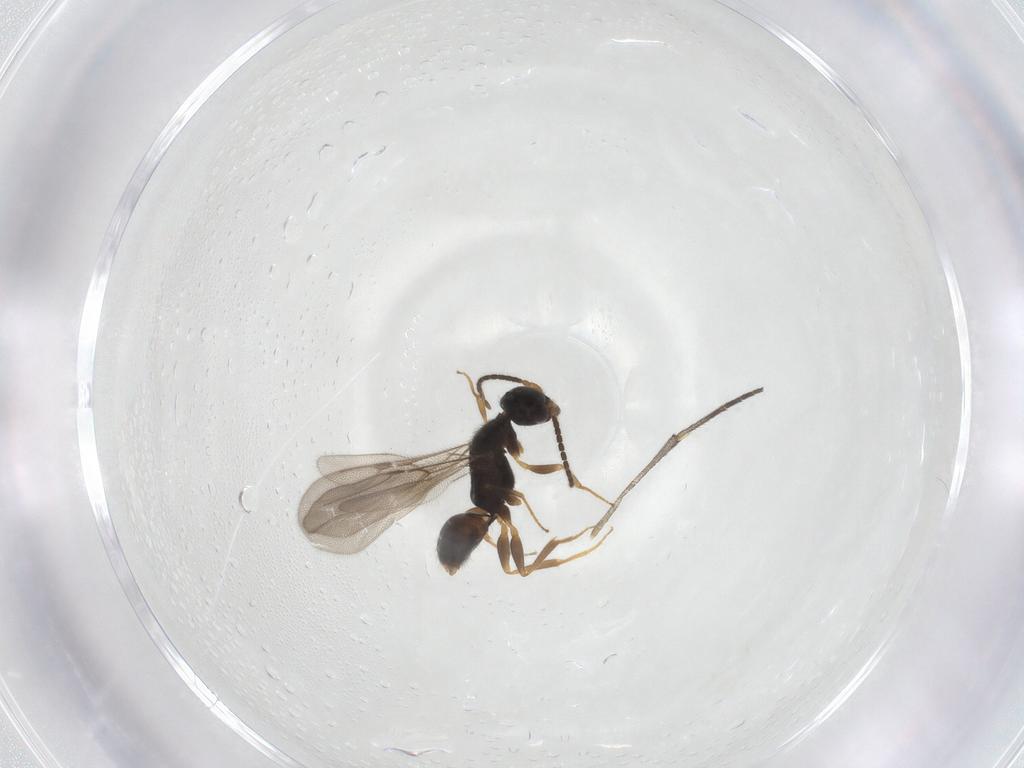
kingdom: Animalia
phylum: Arthropoda
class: Insecta
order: Hymenoptera
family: Bethylidae
